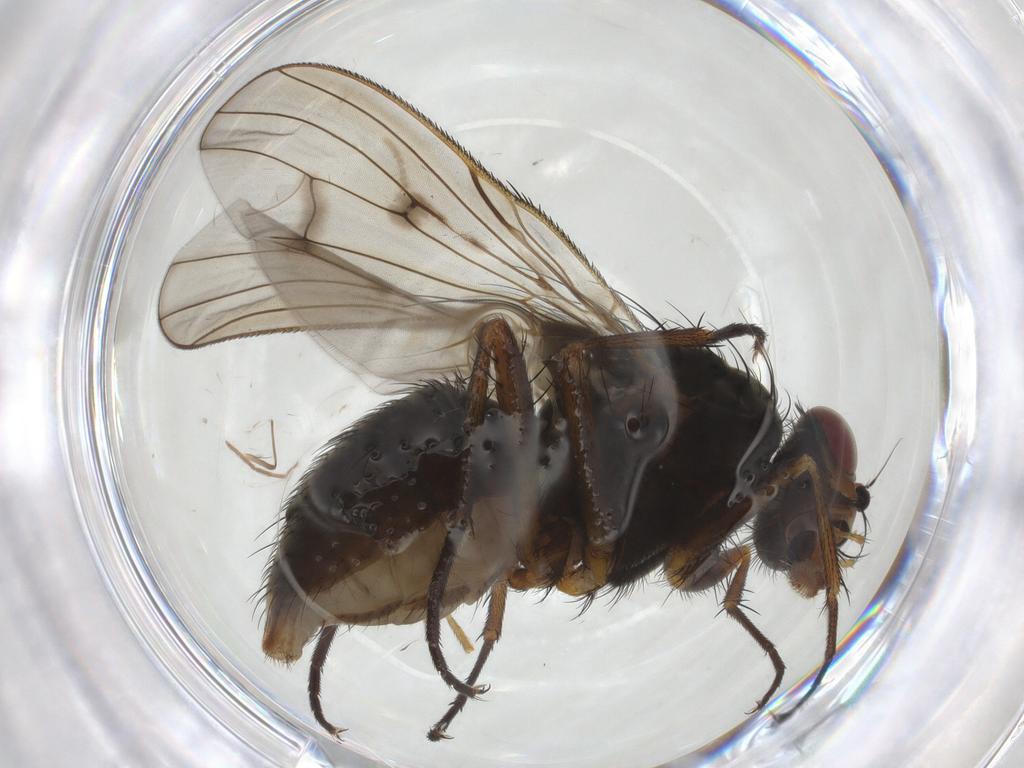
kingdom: Animalia
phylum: Arthropoda
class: Insecta
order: Diptera
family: Anthomyiidae
